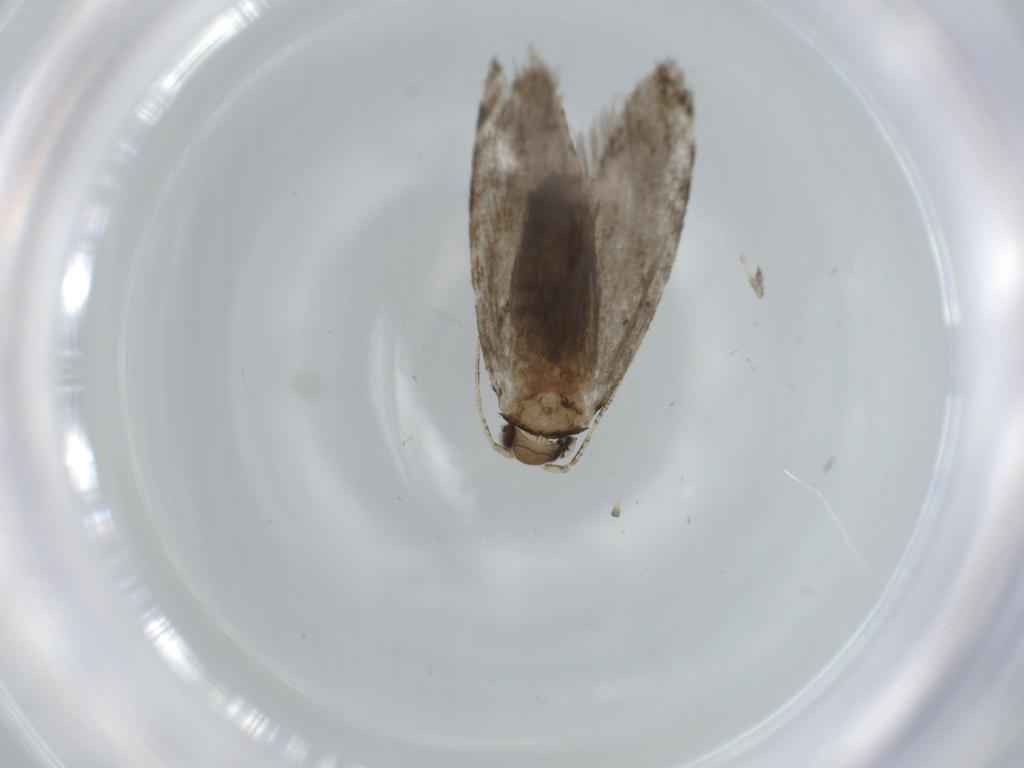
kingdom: Animalia
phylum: Arthropoda
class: Insecta
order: Lepidoptera
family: Tineidae
